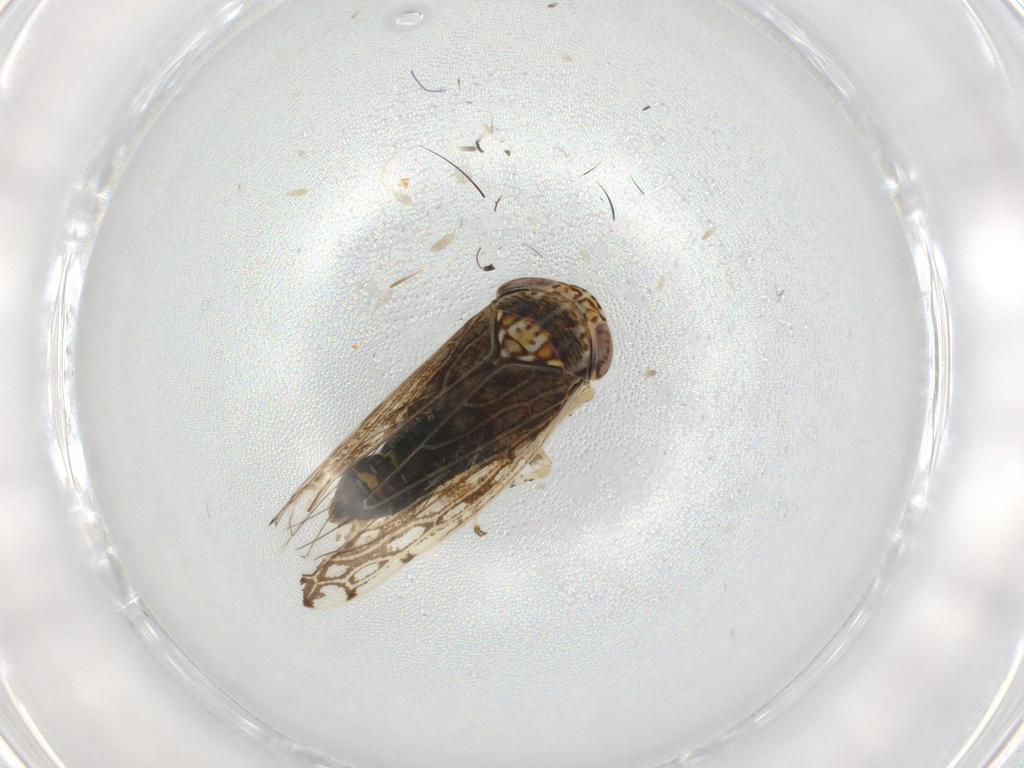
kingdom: Animalia
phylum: Arthropoda
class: Insecta
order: Hemiptera
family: Cicadellidae
